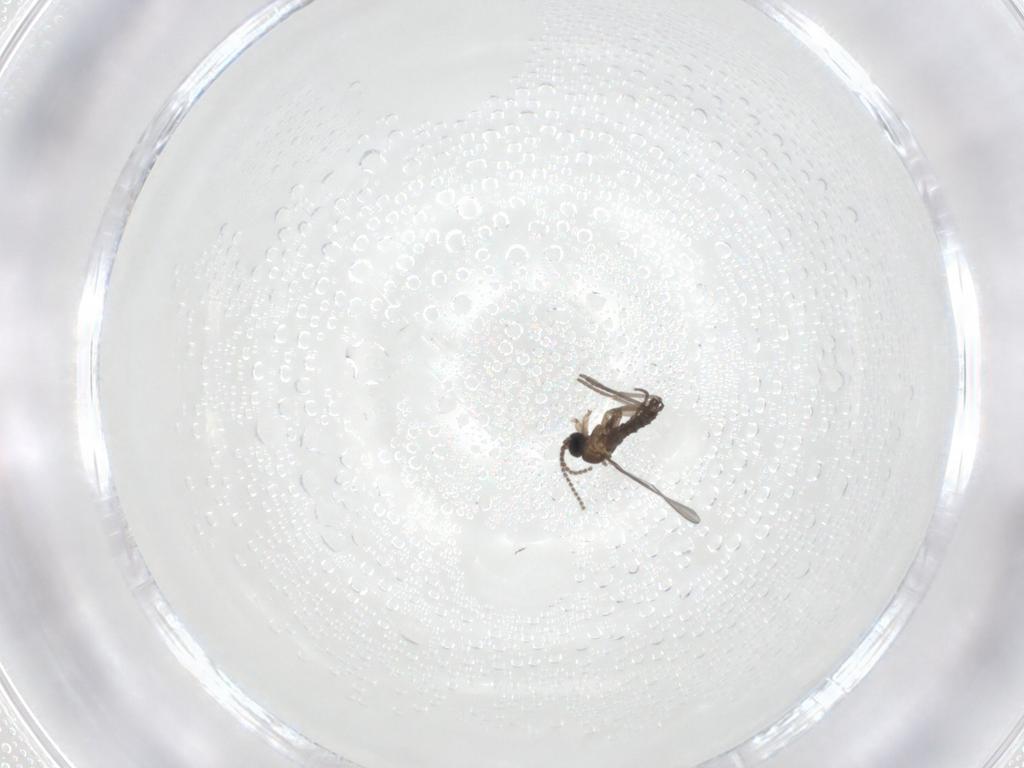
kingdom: Animalia
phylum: Arthropoda
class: Insecta
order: Diptera
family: Sciaridae
